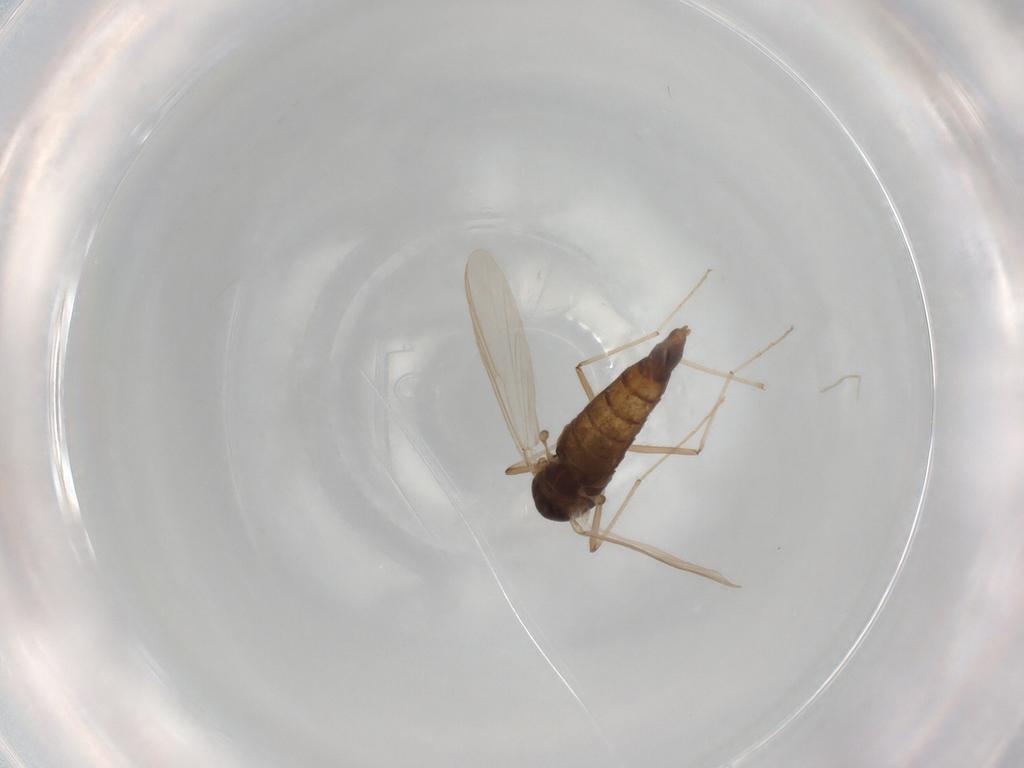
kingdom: Animalia
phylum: Arthropoda
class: Insecta
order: Diptera
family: Chironomidae
